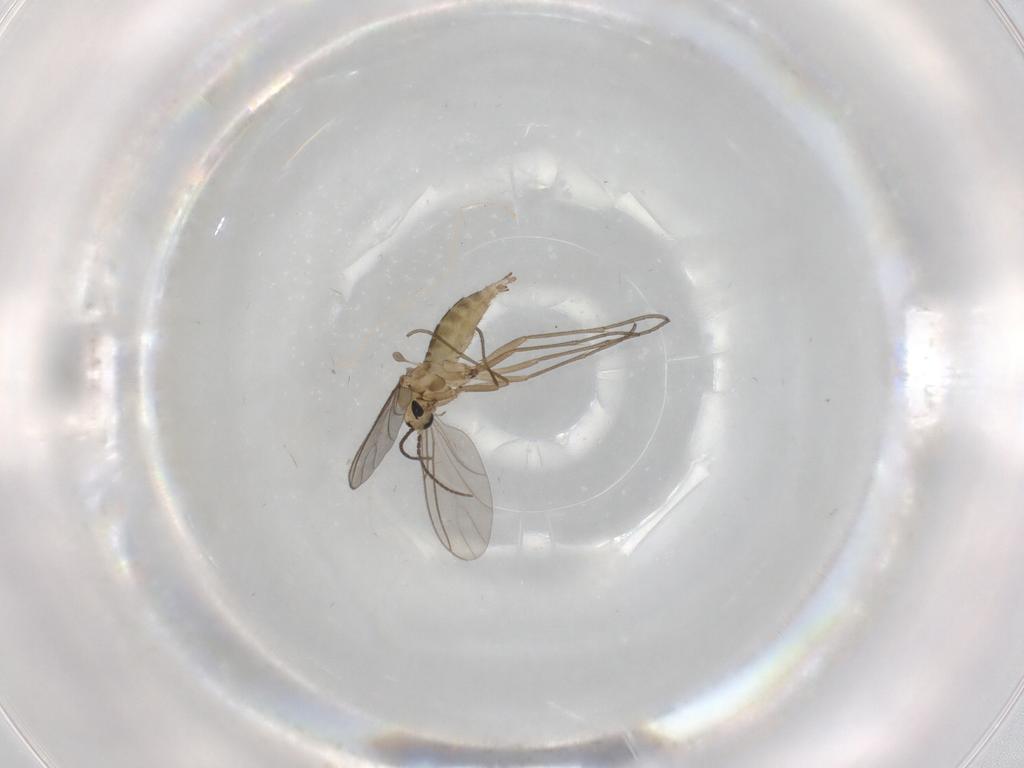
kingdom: Animalia
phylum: Arthropoda
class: Insecta
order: Diptera
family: Sciaridae
